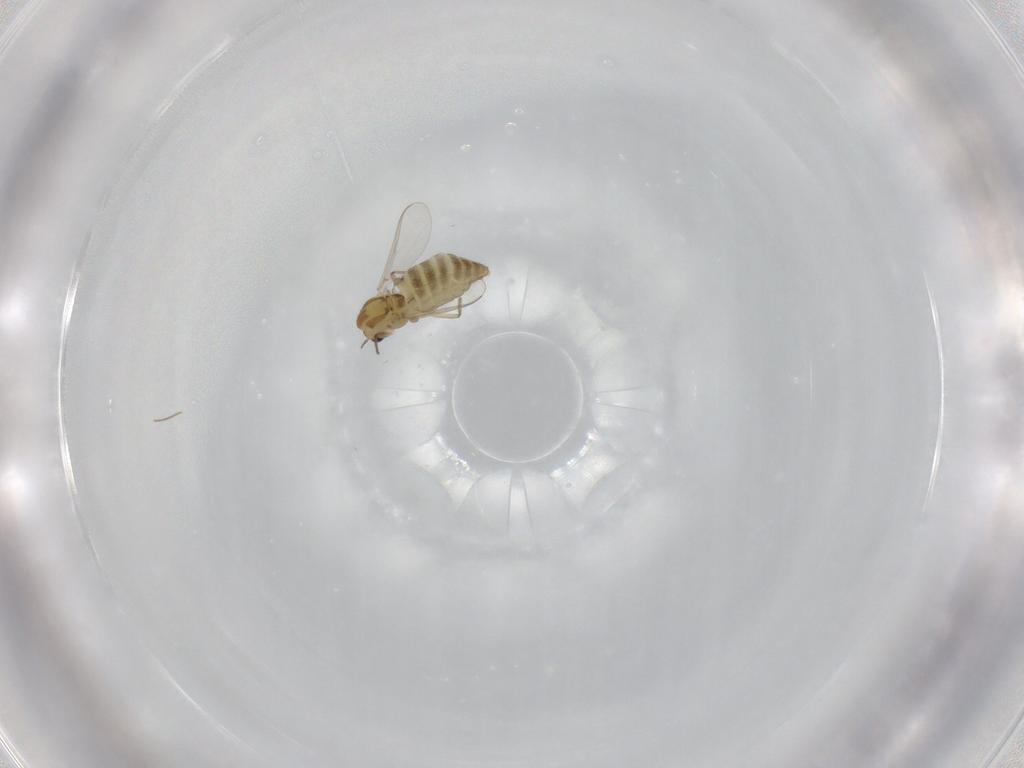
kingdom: Animalia
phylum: Arthropoda
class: Insecta
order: Diptera
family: Chironomidae
